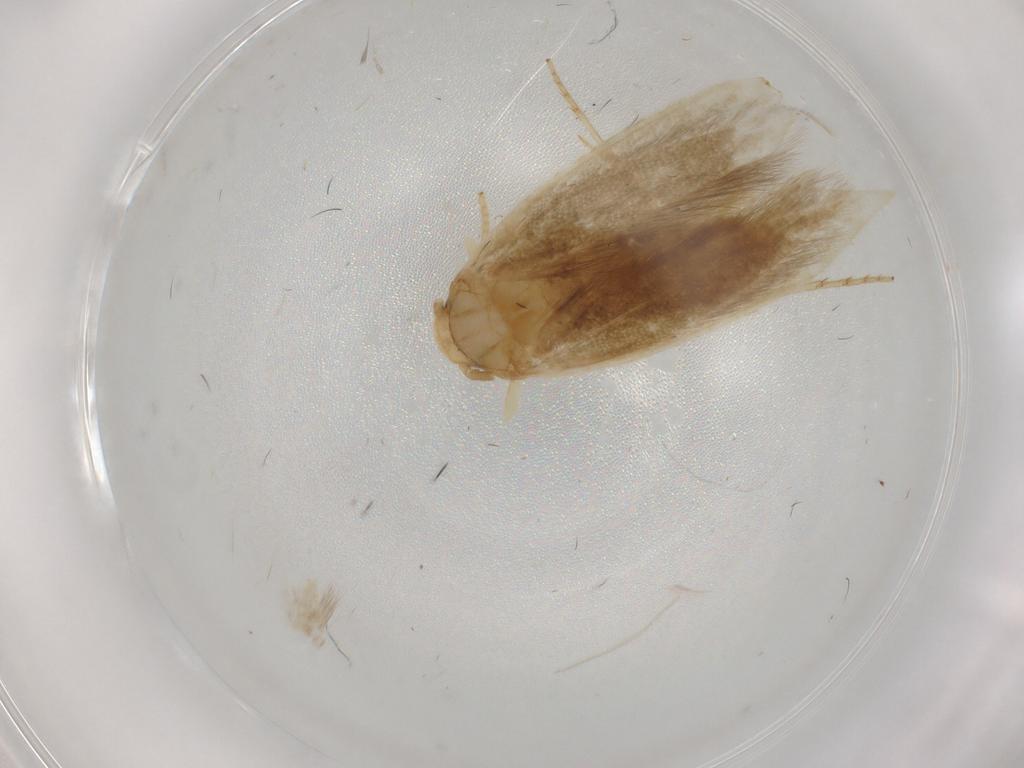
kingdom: Animalia
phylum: Arthropoda
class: Insecta
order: Lepidoptera
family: Tineidae
